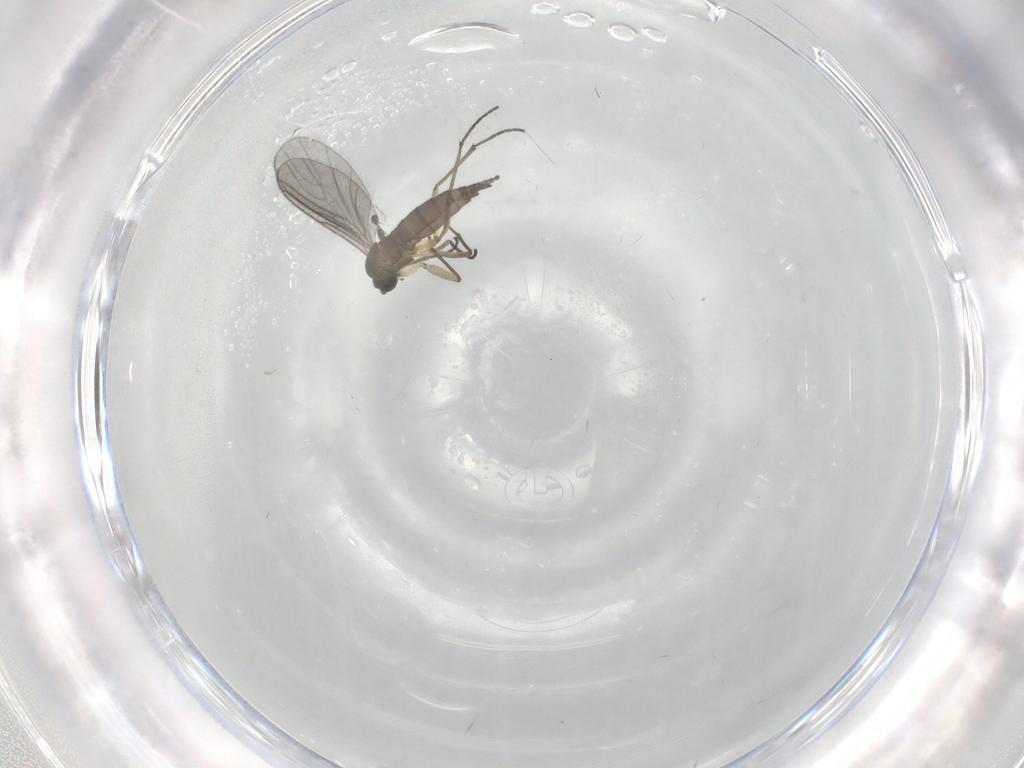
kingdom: Animalia
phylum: Arthropoda
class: Insecta
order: Diptera
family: Sciaridae
